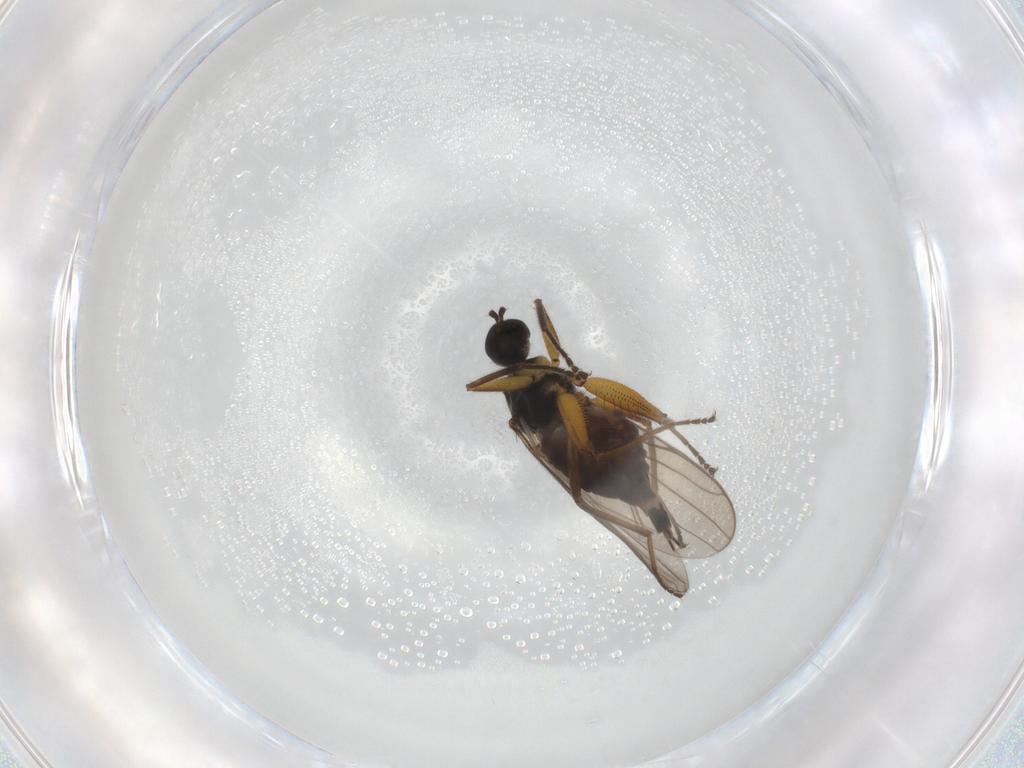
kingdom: Animalia
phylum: Arthropoda
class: Insecta
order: Diptera
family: Hybotidae
